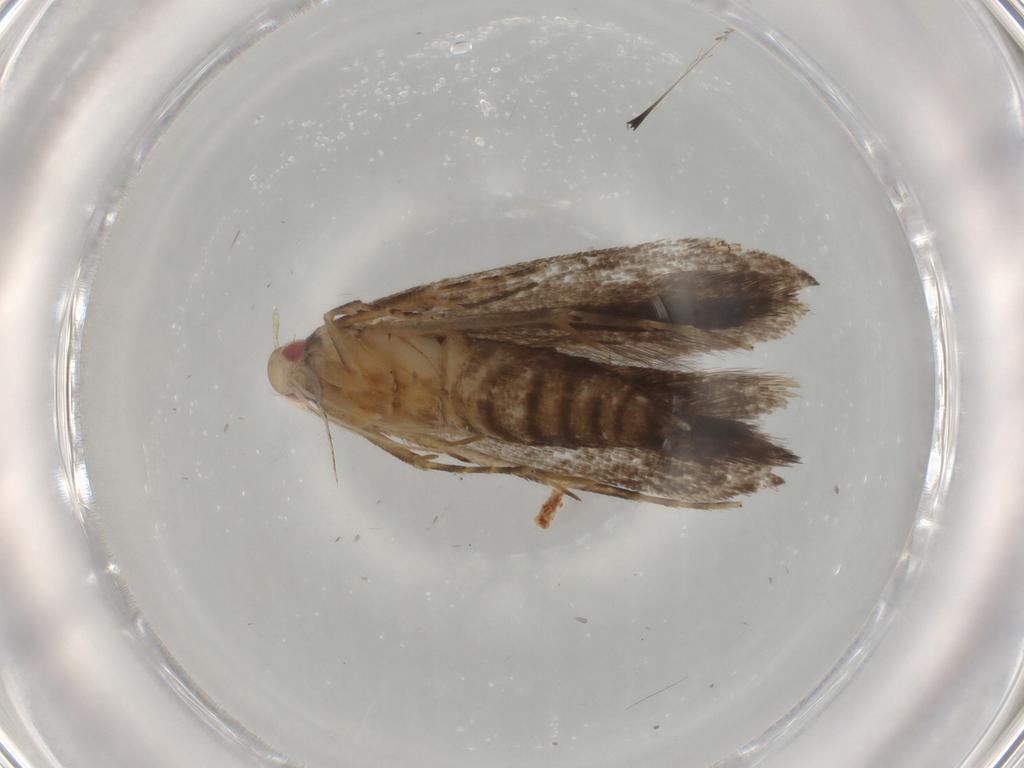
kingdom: Animalia
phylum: Arthropoda
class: Insecta
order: Lepidoptera
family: Gelechiidae
